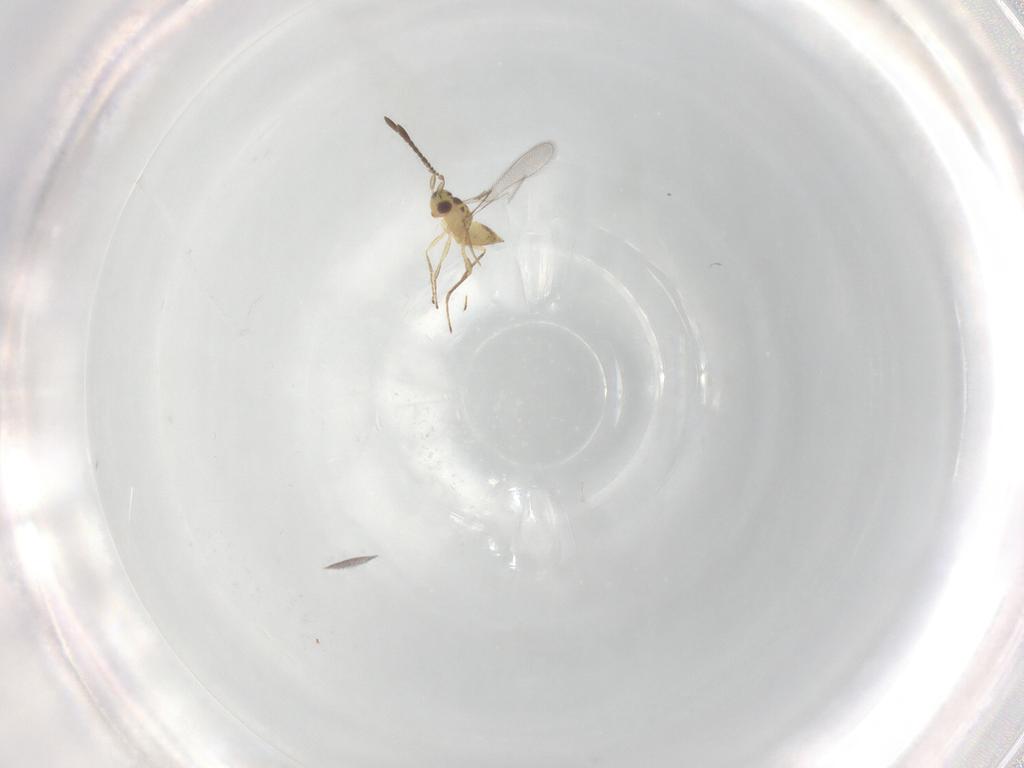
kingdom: Animalia
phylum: Arthropoda
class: Insecta
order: Hymenoptera
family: Mymaridae
